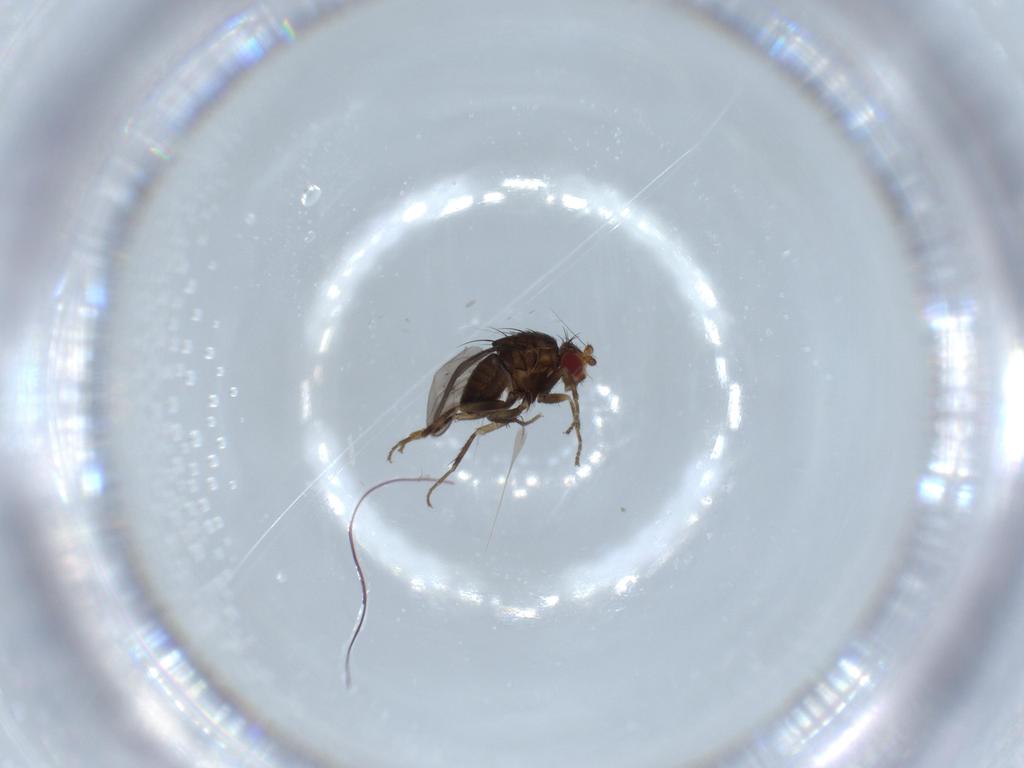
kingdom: Animalia
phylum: Arthropoda
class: Insecta
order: Diptera
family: Sphaeroceridae
